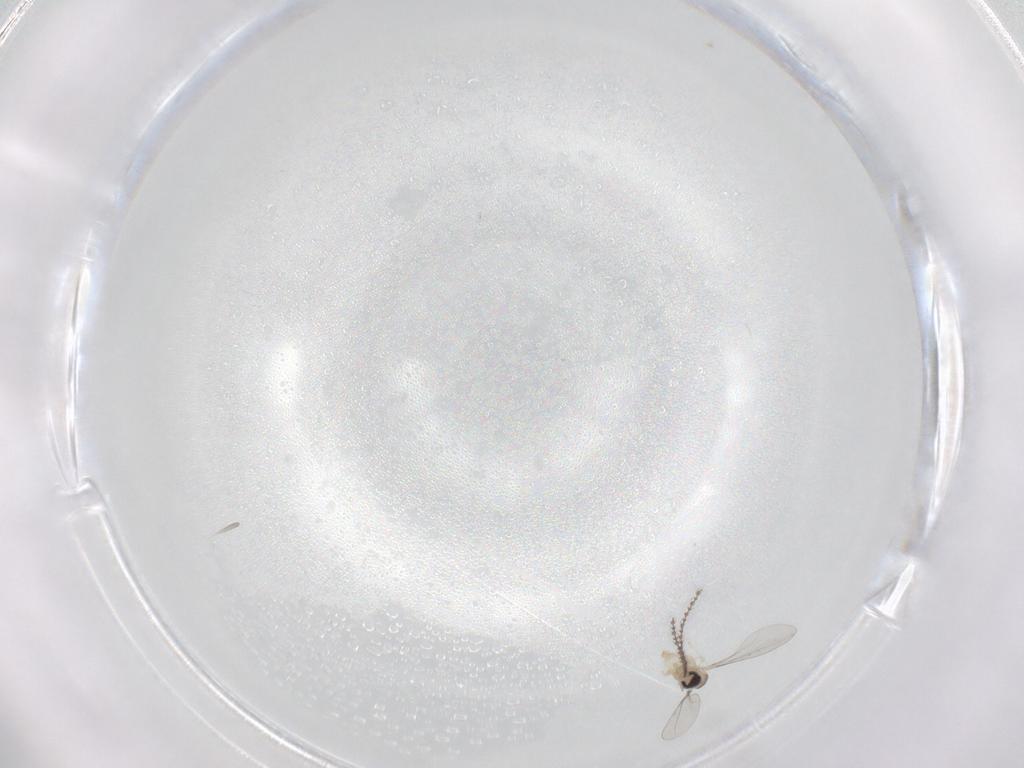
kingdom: Animalia
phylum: Arthropoda
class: Insecta
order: Diptera
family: Cecidomyiidae
